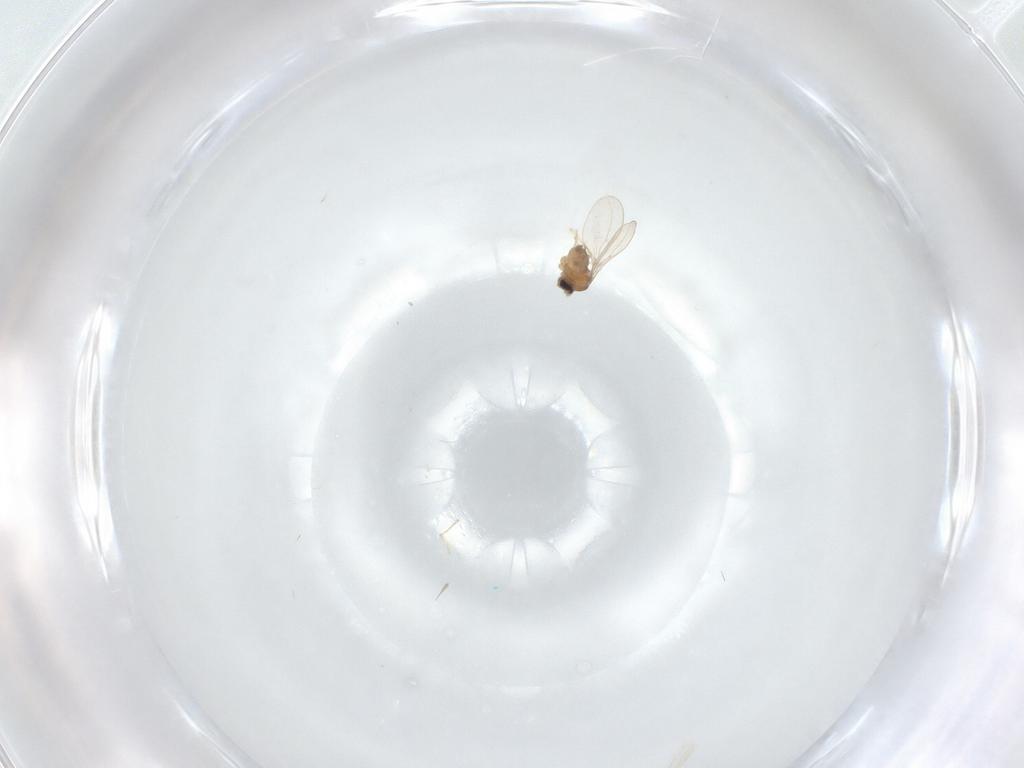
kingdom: Animalia
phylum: Arthropoda
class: Insecta
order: Diptera
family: Cecidomyiidae
